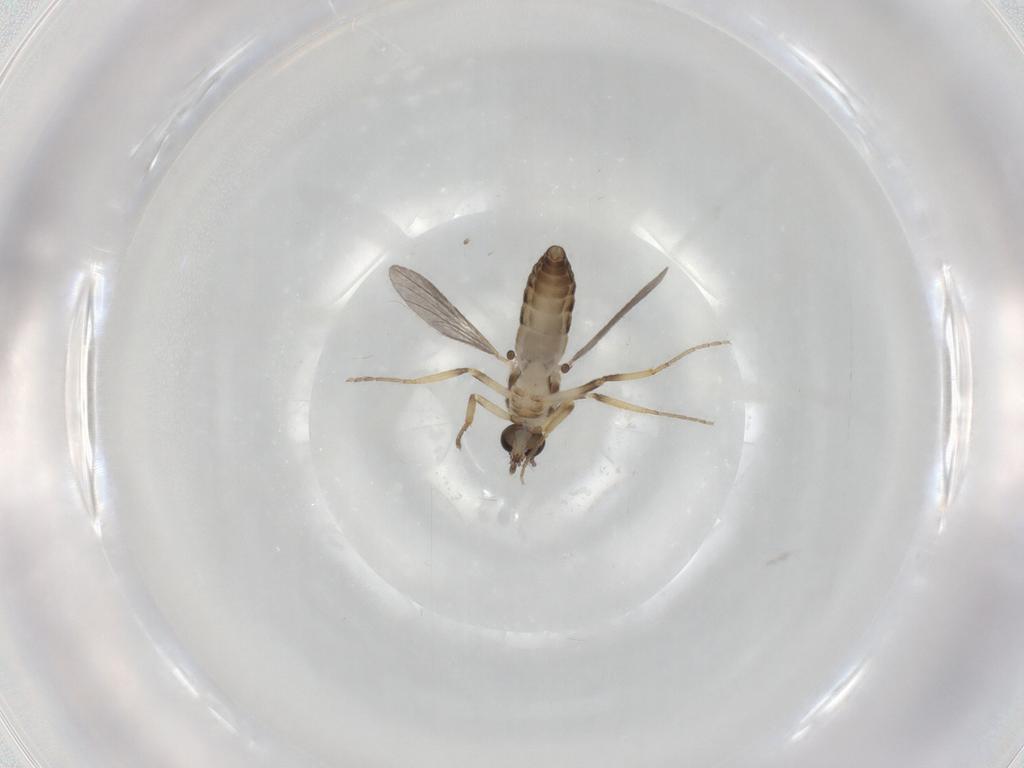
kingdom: Animalia
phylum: Arthropoda
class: Insecta
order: Diptera
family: Ceratopogonidae
